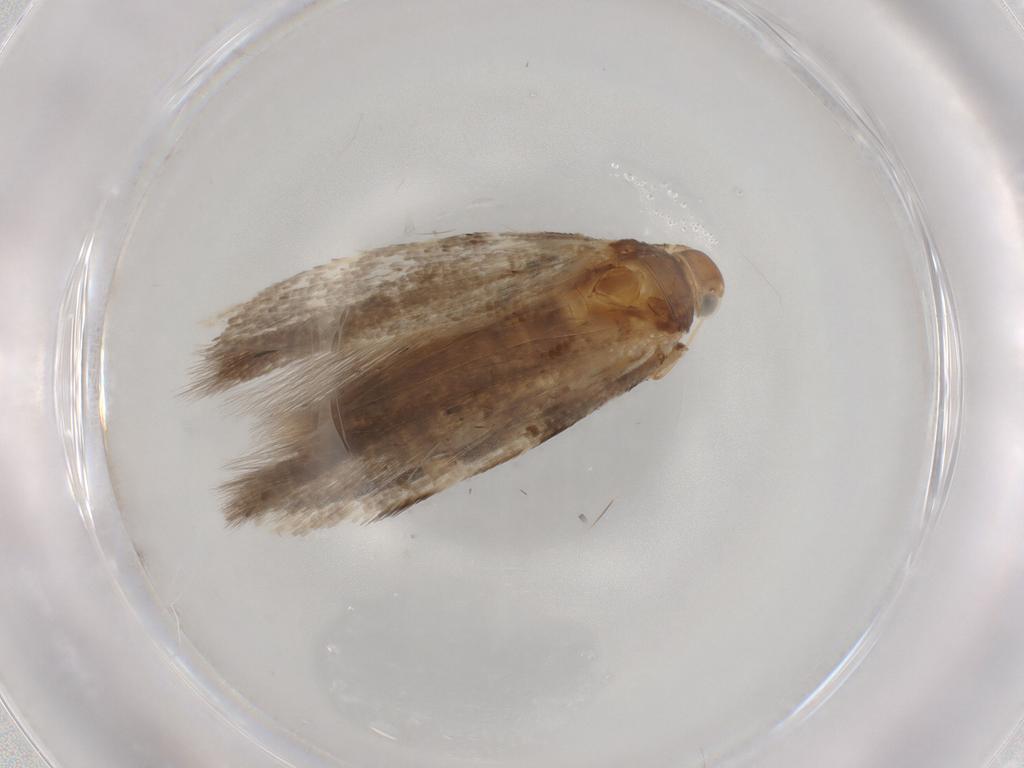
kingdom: Animalia
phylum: Arthropoda
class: Insecta
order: Lepidoptera
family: Gelechiidae
